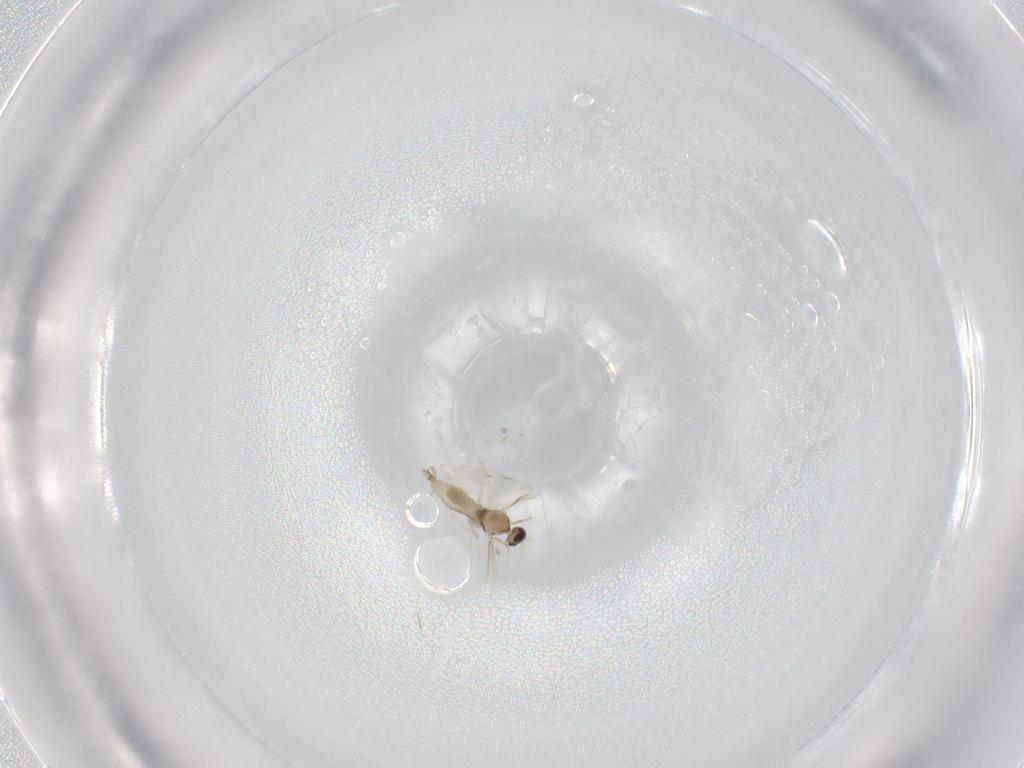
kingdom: Animalia
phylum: Arthropoda
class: Insecta
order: Diptera
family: Cecidomyiidae
